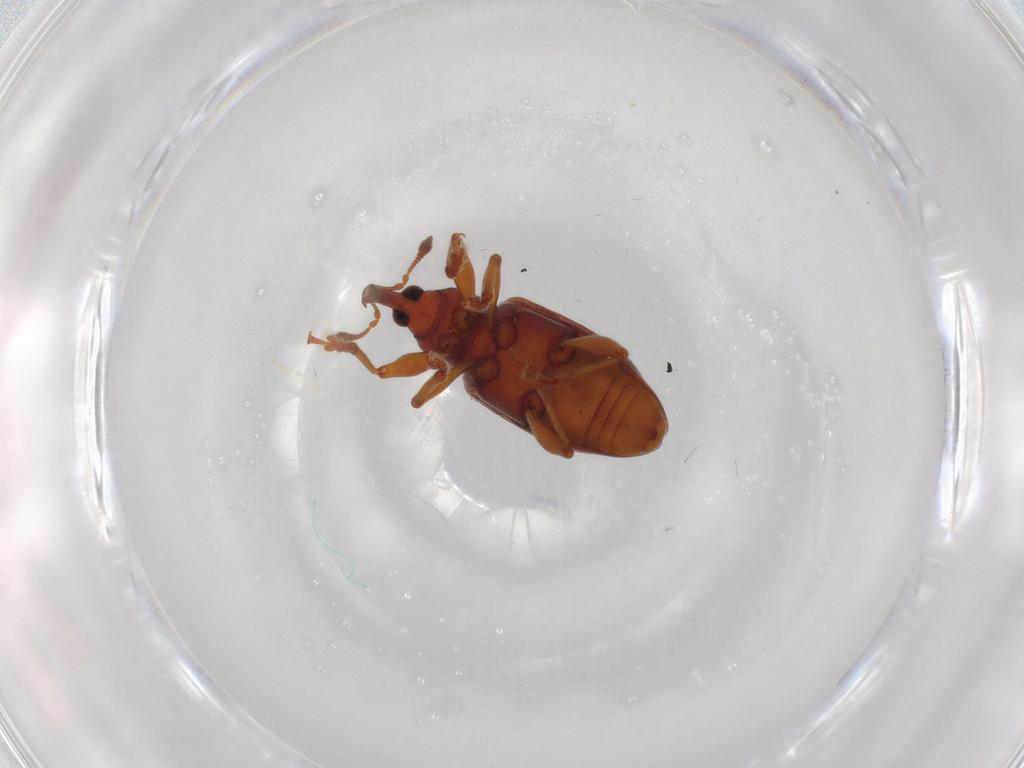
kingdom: Animalia
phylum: Arthropoda
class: Insecta
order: Coleoptera
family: Curculionidae
